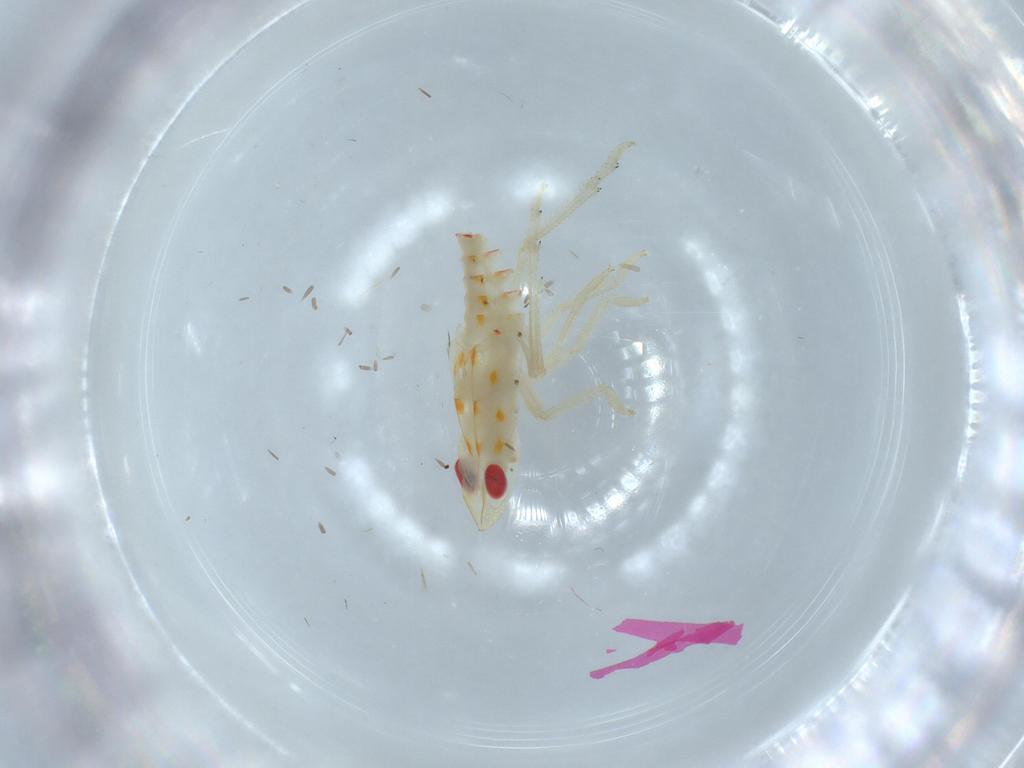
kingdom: Animalia
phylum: Arthropoda
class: Insecta
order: Hemiptera
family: Tropiduchidae
